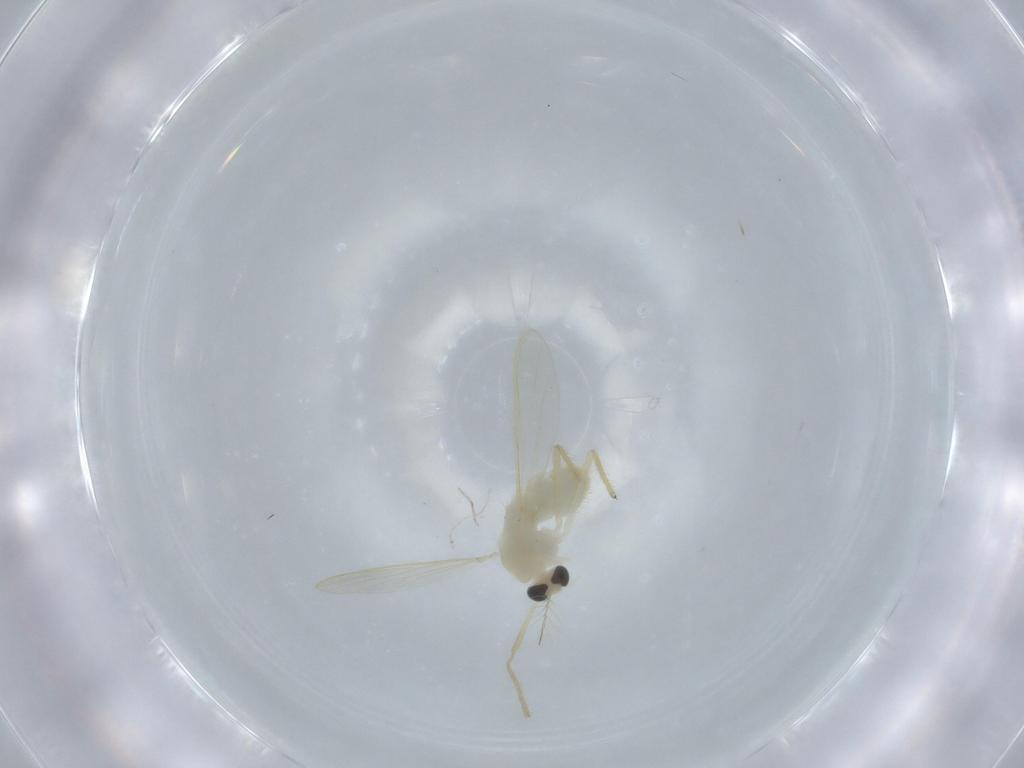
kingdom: Animalia
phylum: Arthropoda
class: Insecta
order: Diptera
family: Chironomidae
